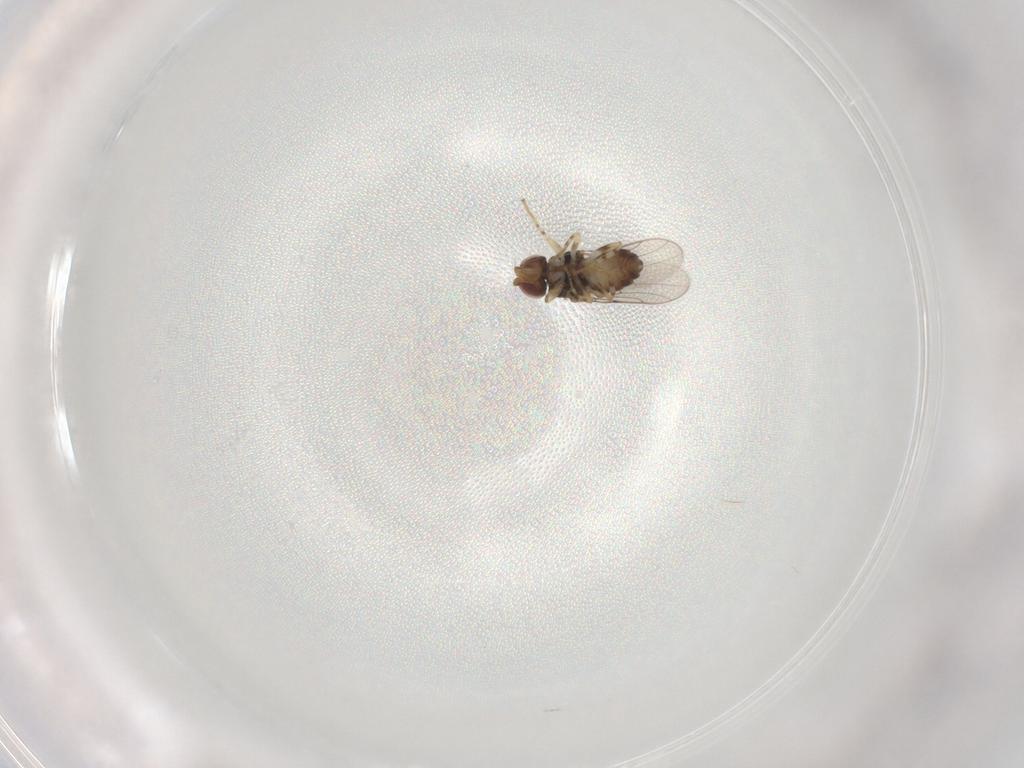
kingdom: Animalia
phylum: Arthropoda
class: Insecta
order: Diptera
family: Chloropidae
